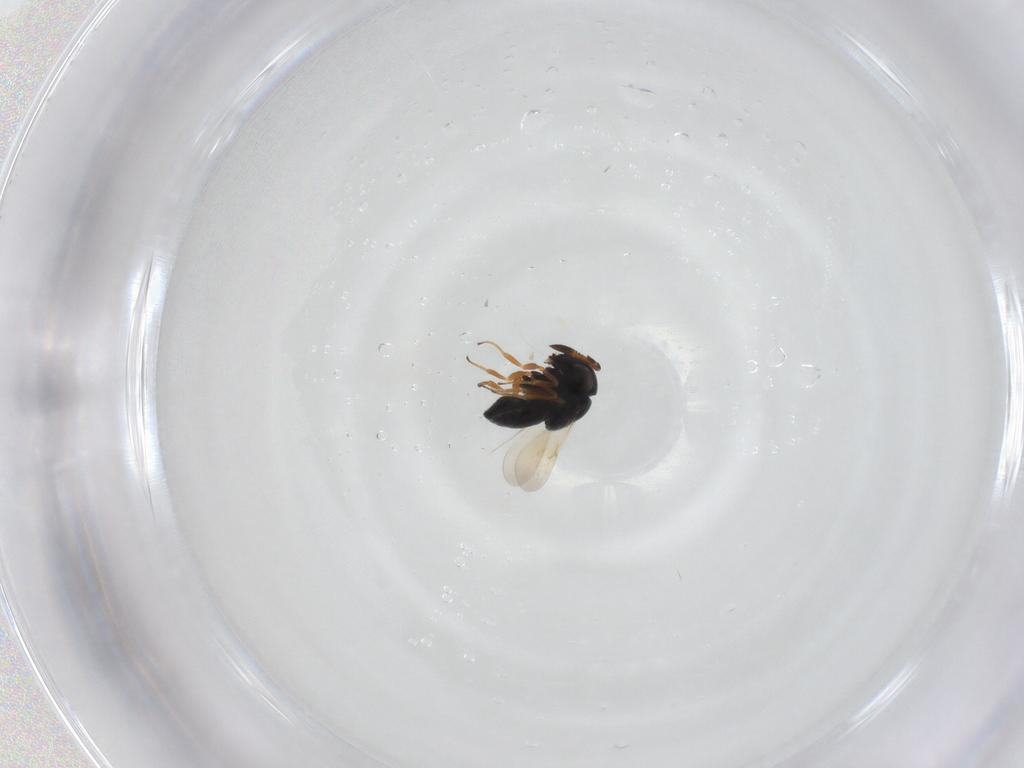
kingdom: Animalia
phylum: Arthropoda
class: Insecta
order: Hymenoptera
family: Scelionidae
